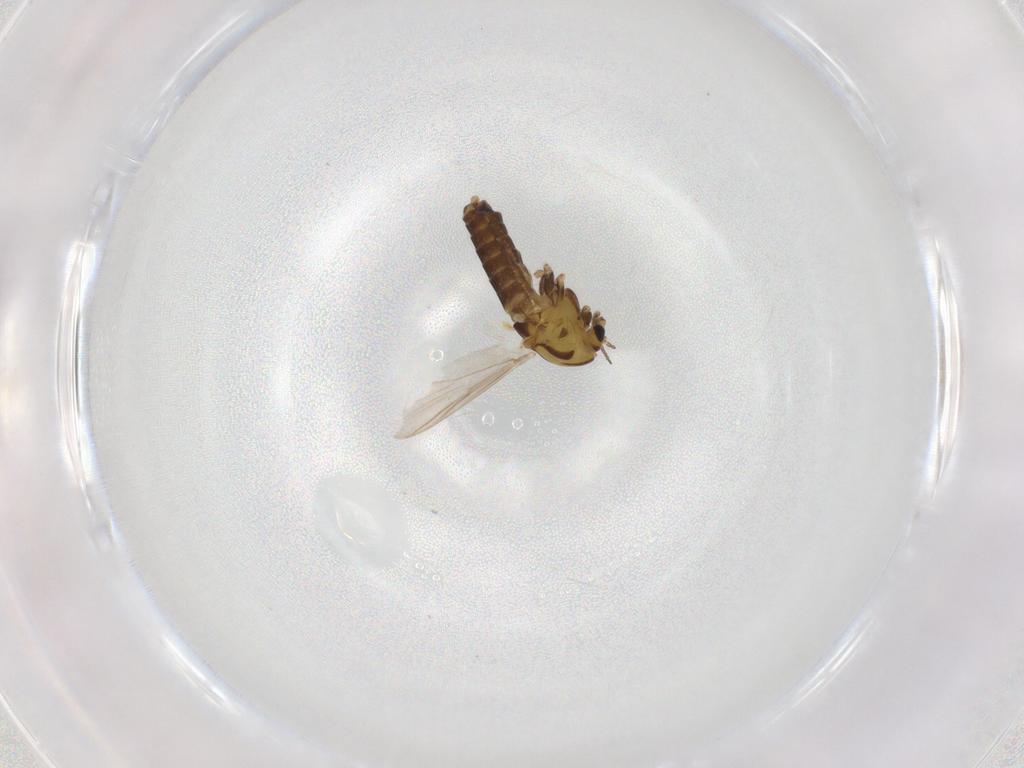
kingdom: Animalia
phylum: Arthropoda
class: Insecta
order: Diptera
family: Chironomidae
